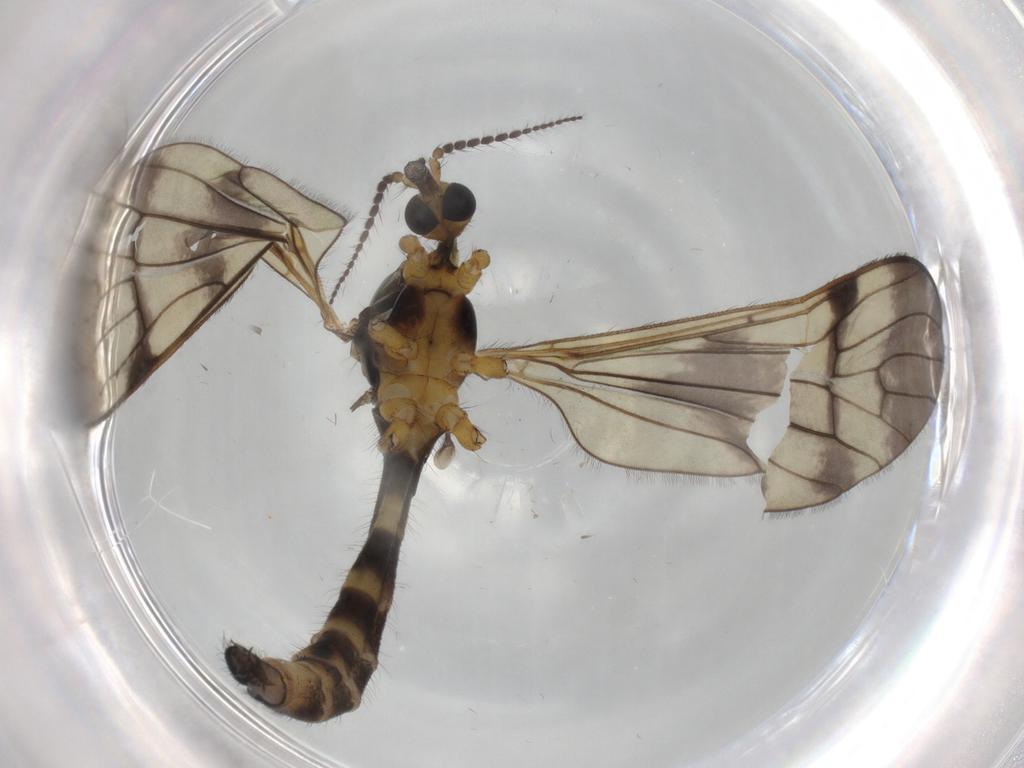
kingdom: Animalia
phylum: Arthropoda
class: Insecta
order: Diptera
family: Limoniidae
